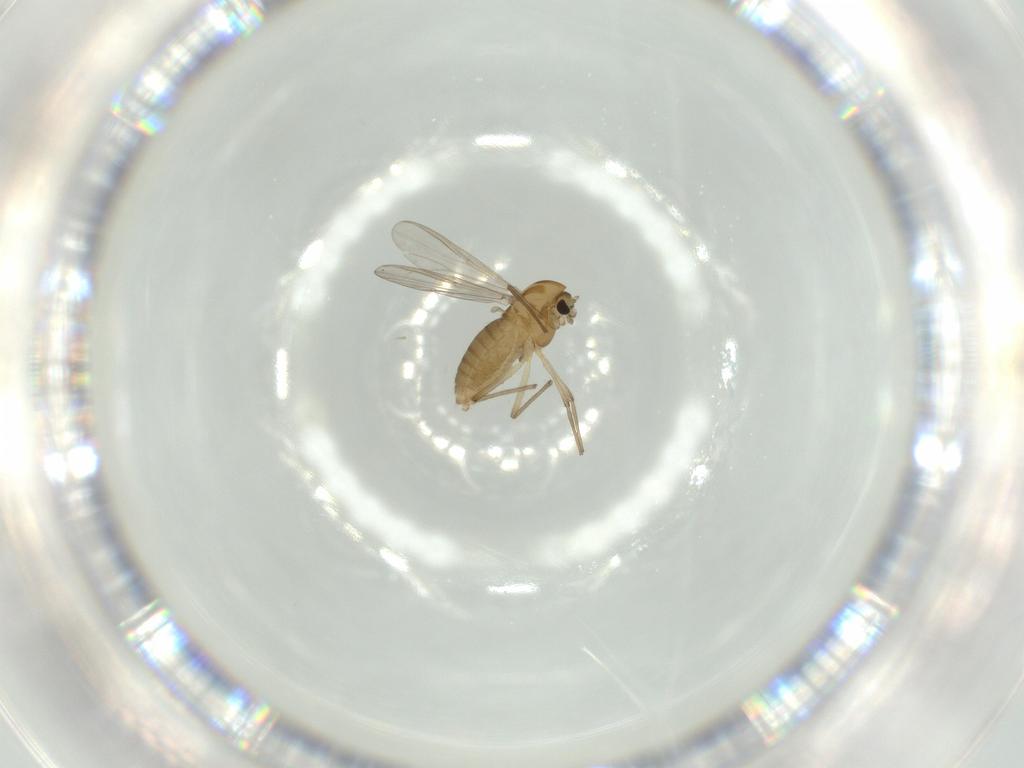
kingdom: Animalia
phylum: Arthropoda
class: Insecta
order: Diptera
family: Chironomidae
